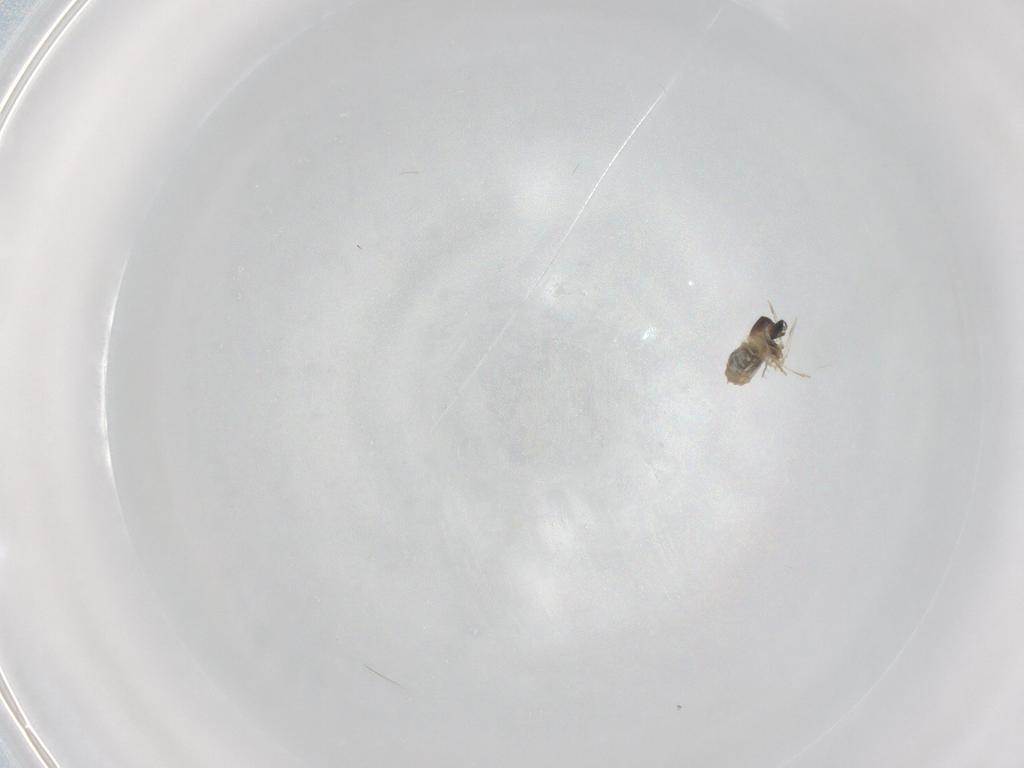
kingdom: Animalia
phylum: Arthropoda
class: Insecta
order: Diptera
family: Cecidomyiidae
